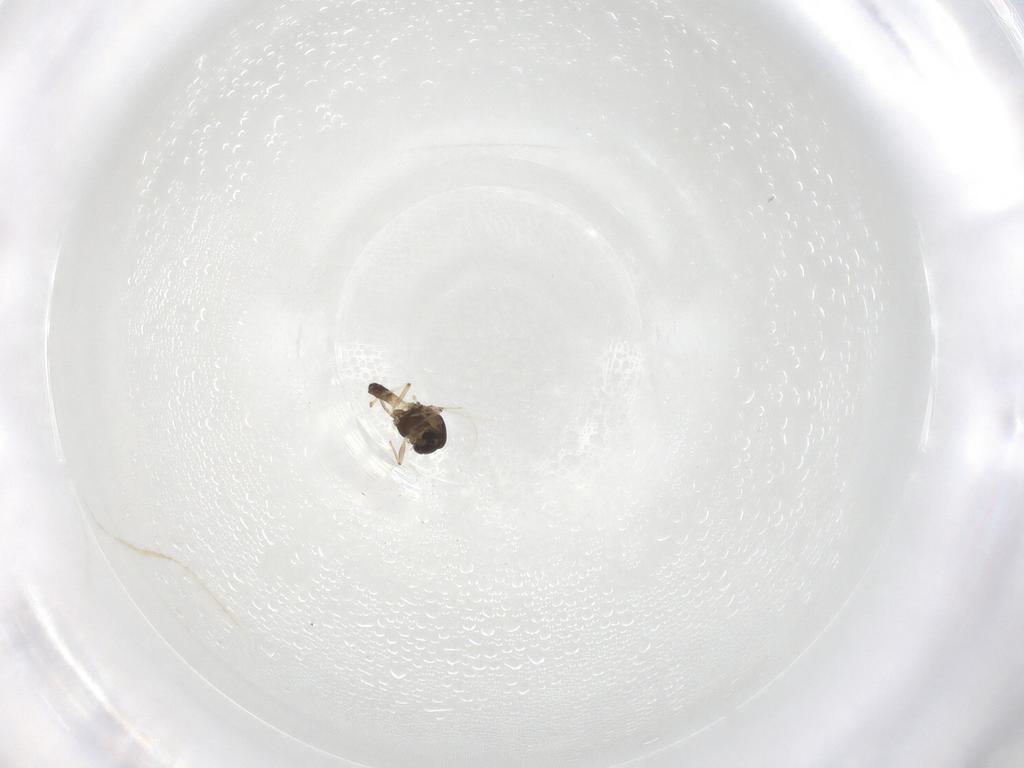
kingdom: Animalia
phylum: Arthropoda
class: Insecta
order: Diptera
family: Chironomidae
